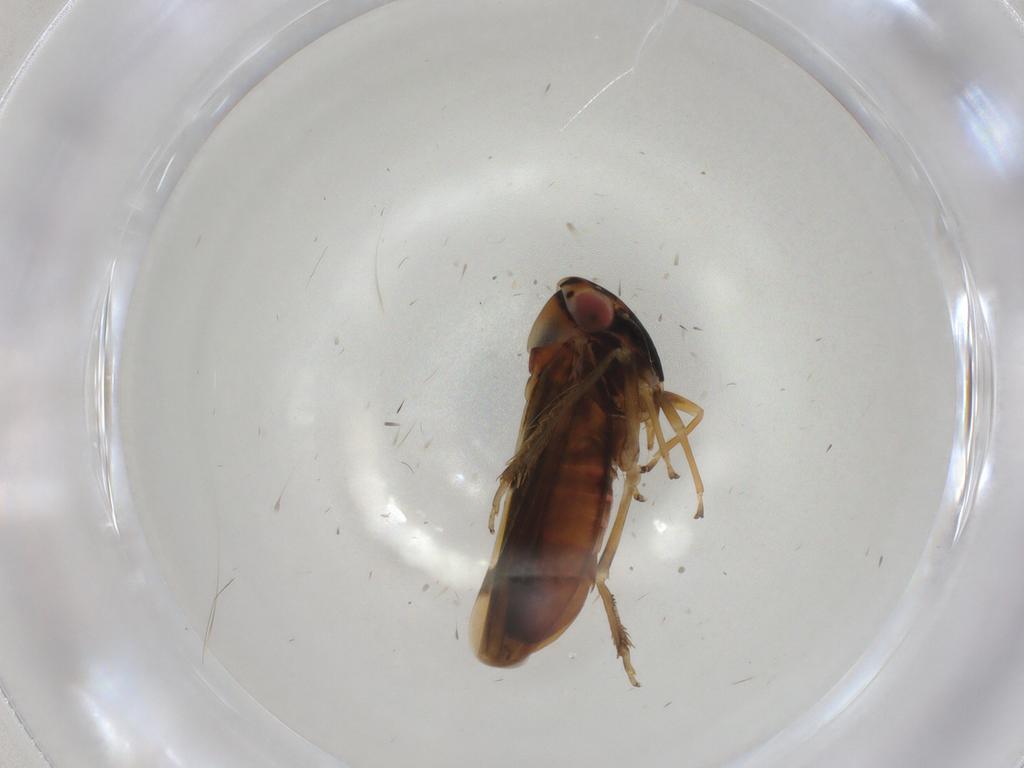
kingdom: Animalia
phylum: Arthropoda
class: Insecta
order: Hemiptera
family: Cicadellidae
